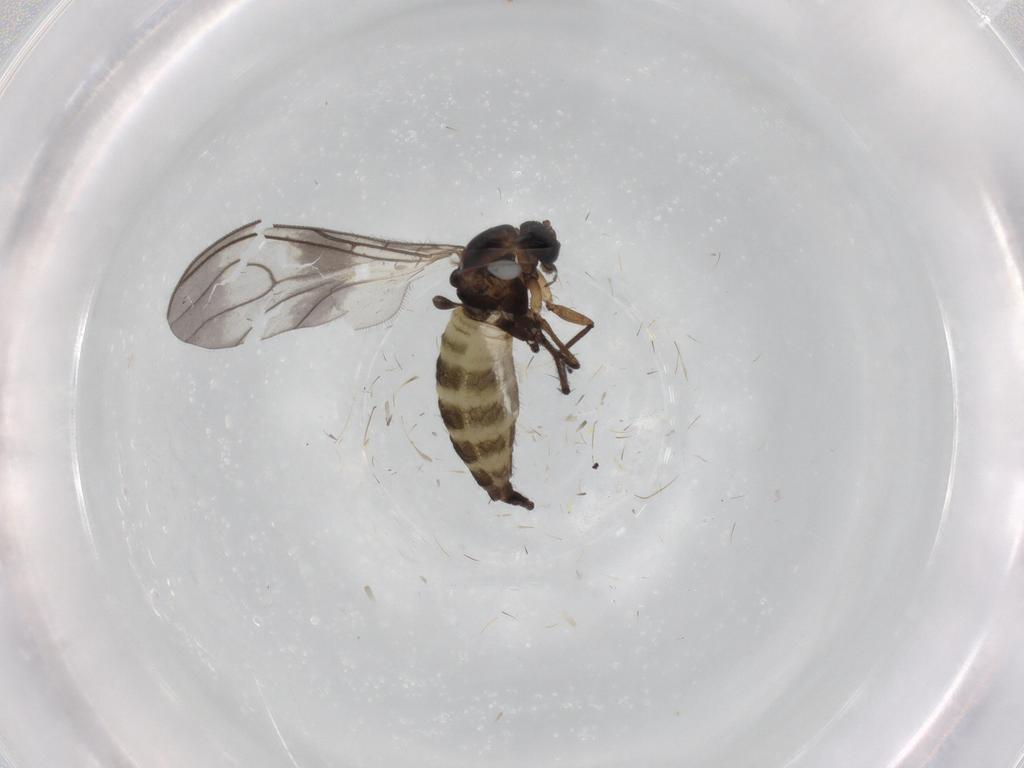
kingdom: Animalia
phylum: Arthropoda
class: Insecta
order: Diptera
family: Sciaridae
